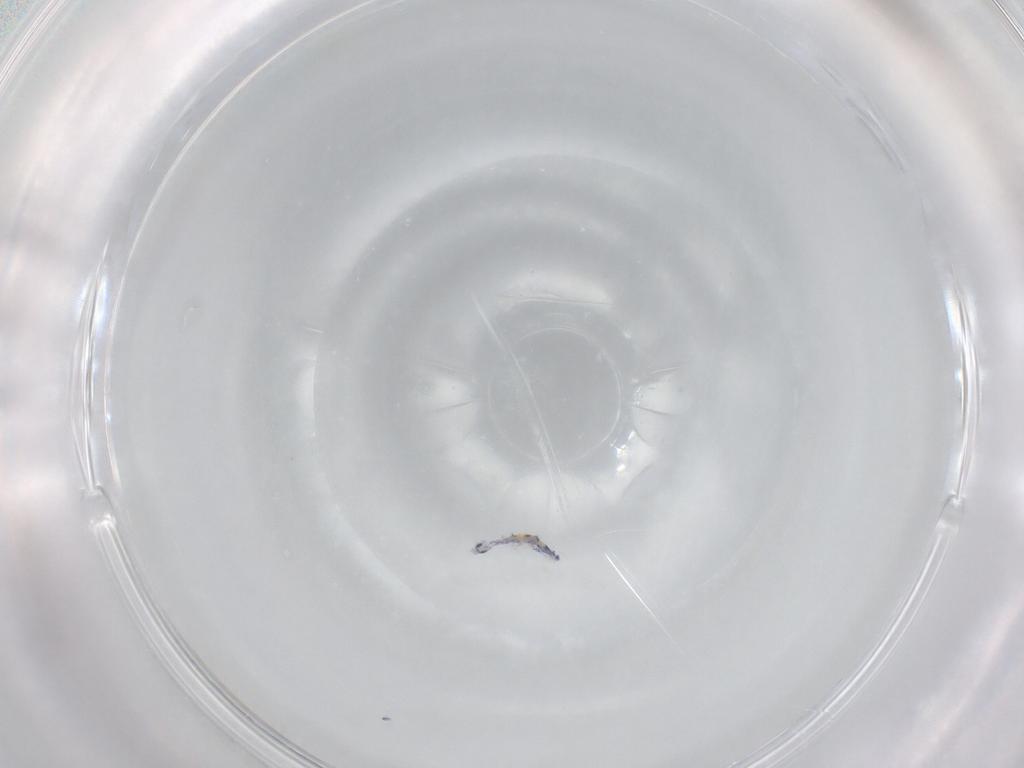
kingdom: Animalia
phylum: Arthropoda
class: Collembola
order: Entomobryomorpha
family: Entomobryidae
